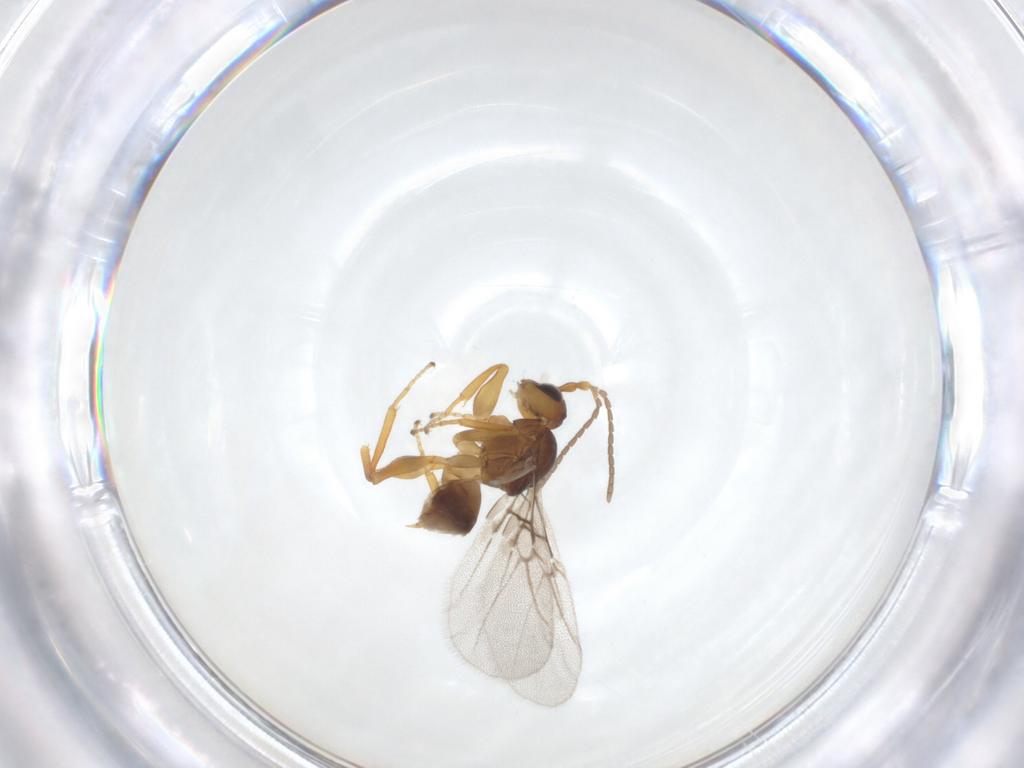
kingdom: Animalia
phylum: Arthropoda
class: Insecta
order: Hymenoptera
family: Cynipidae
